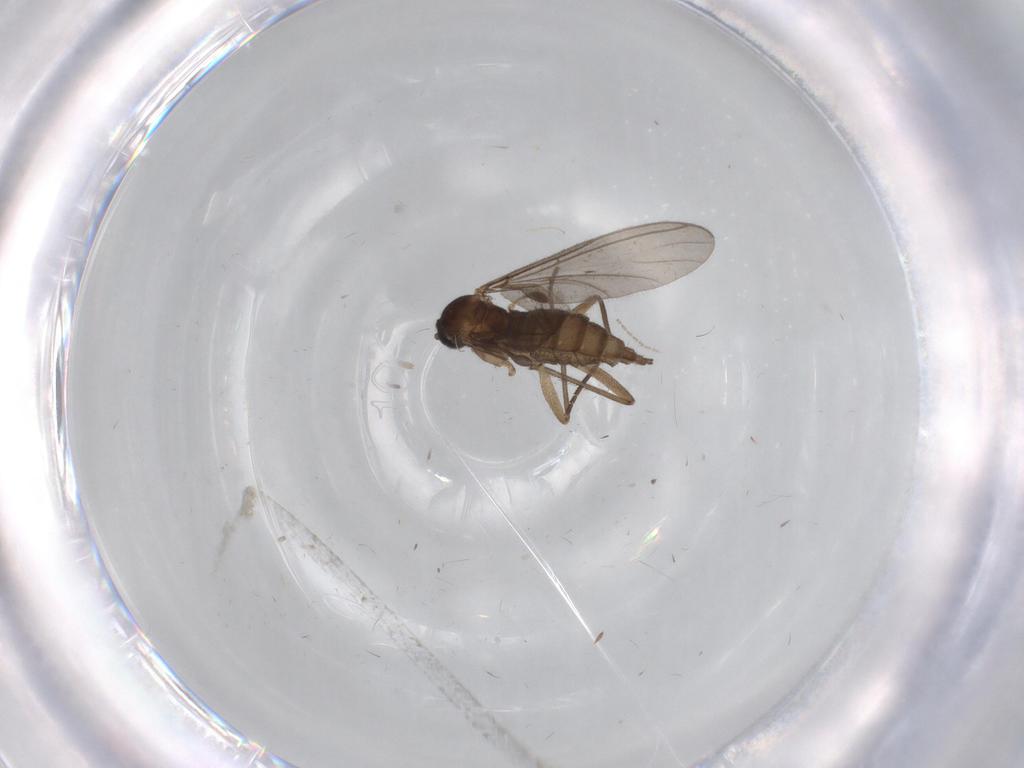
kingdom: Animalia
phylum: Arthropoda
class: Insecta
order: Diptera
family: Sciaridae
